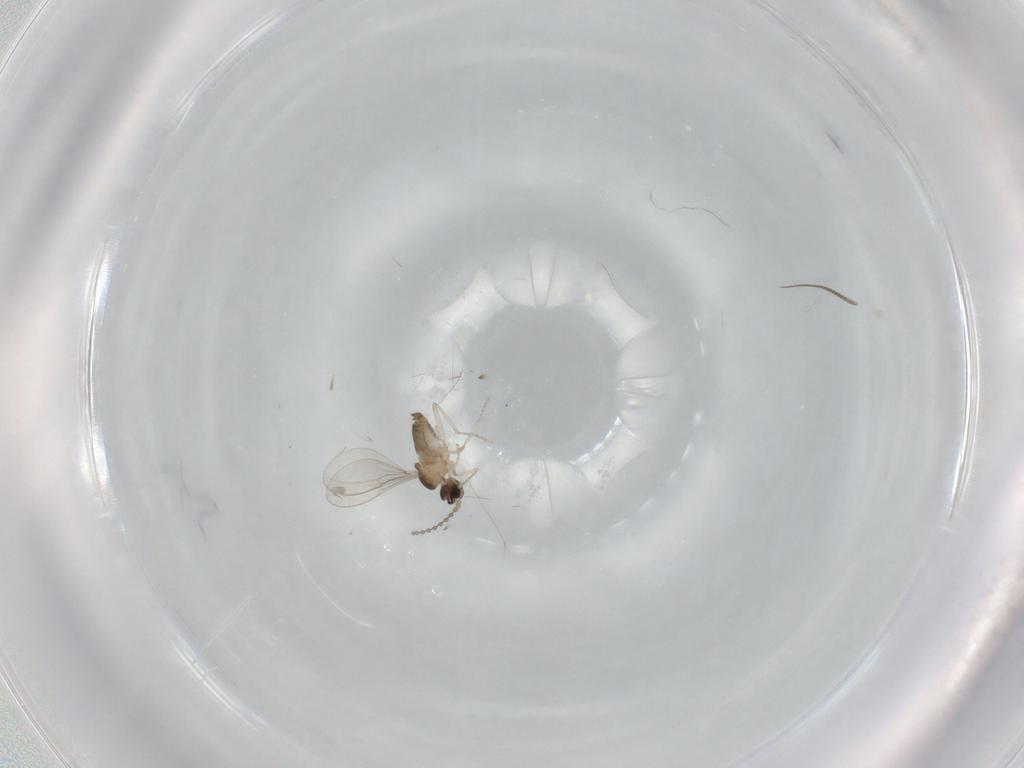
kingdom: Animalia
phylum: Arthropoda
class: Insecta
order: Diptera
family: Cecidomyiidae
